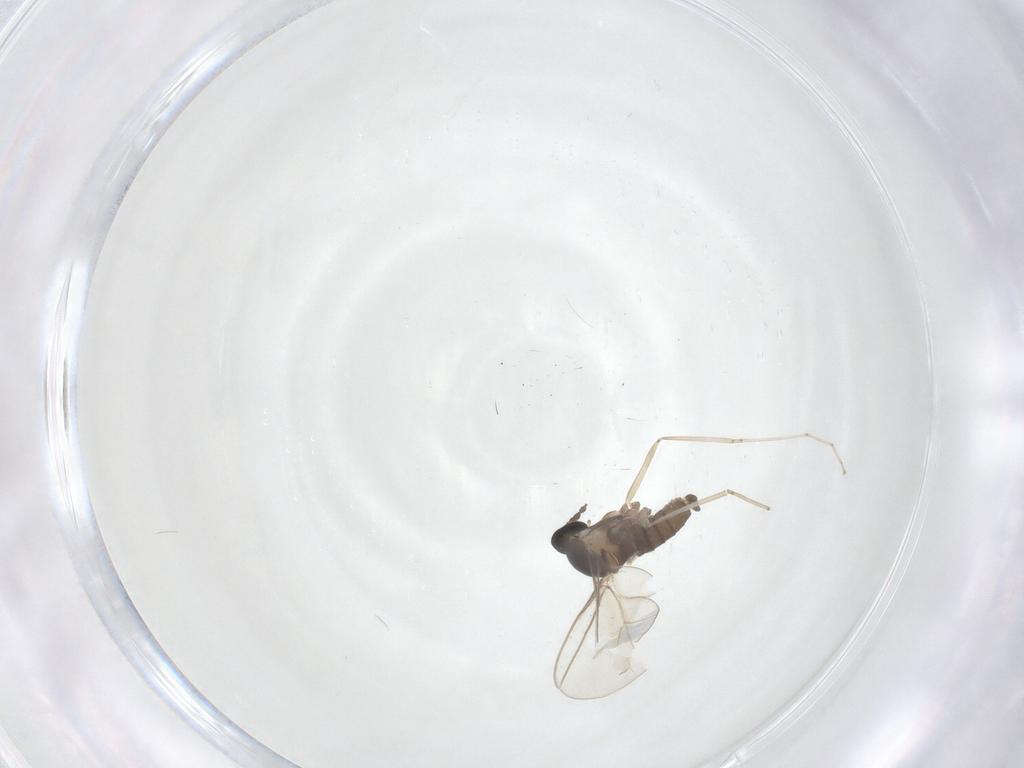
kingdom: Animalia
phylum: Arthropoda
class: Insecta
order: Diptera
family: Cecidomyiidae
